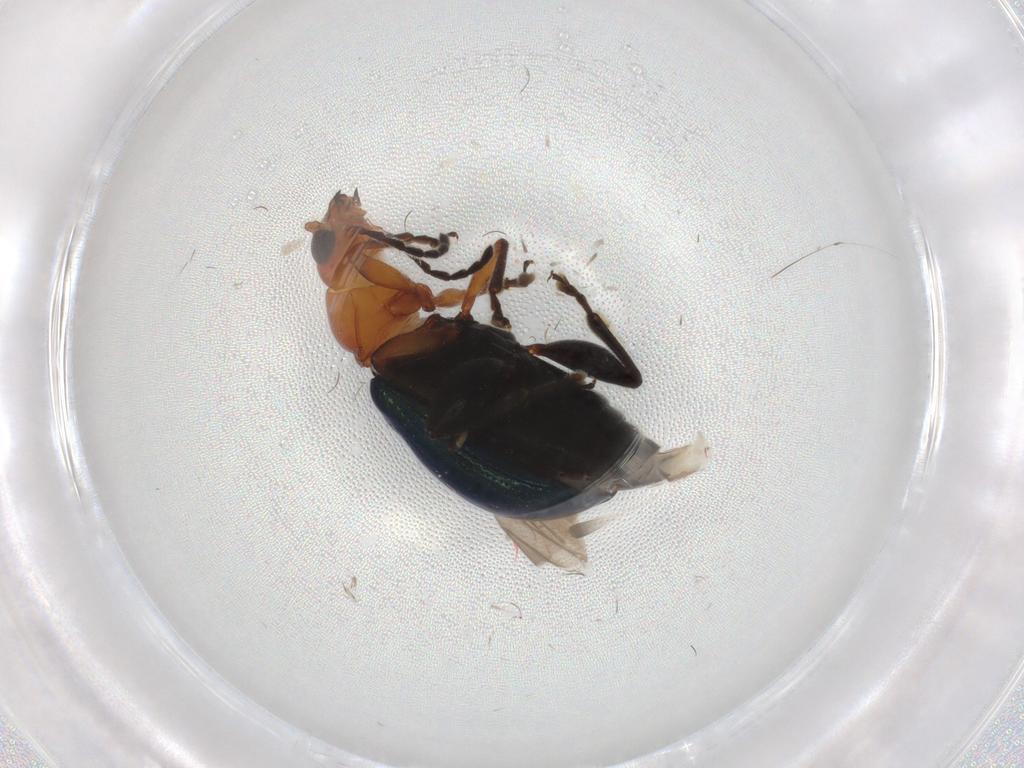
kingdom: Animalia
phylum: Arthropoda
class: Insecta
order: Coleoptera
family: Chrysomelidae
